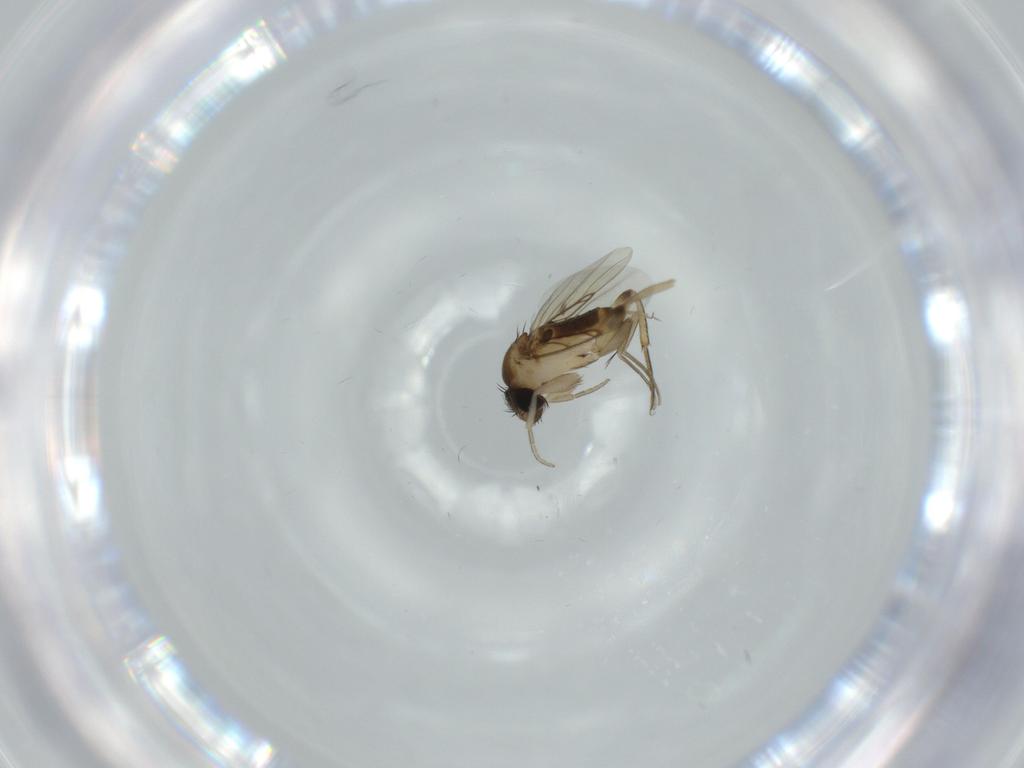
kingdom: Animalia
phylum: Arthropoda
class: Insecta
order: Diptera
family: Phoridae
